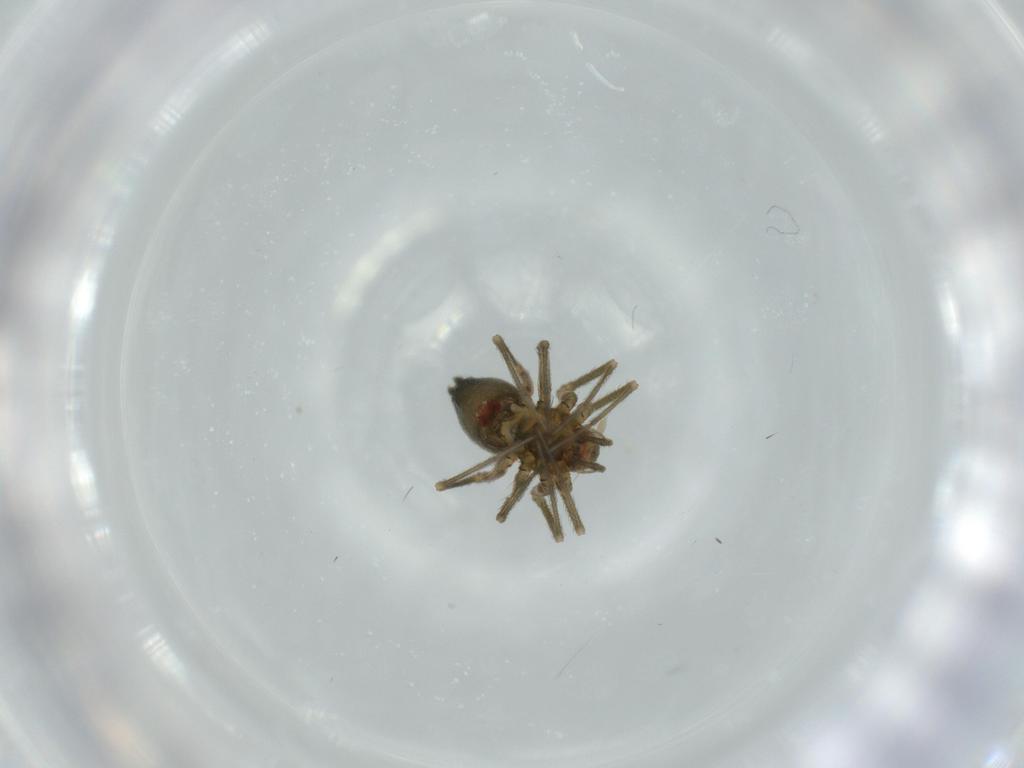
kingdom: Animalia
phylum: Arthropoda
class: Arachnida
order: Araneae
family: Linyphiidae
